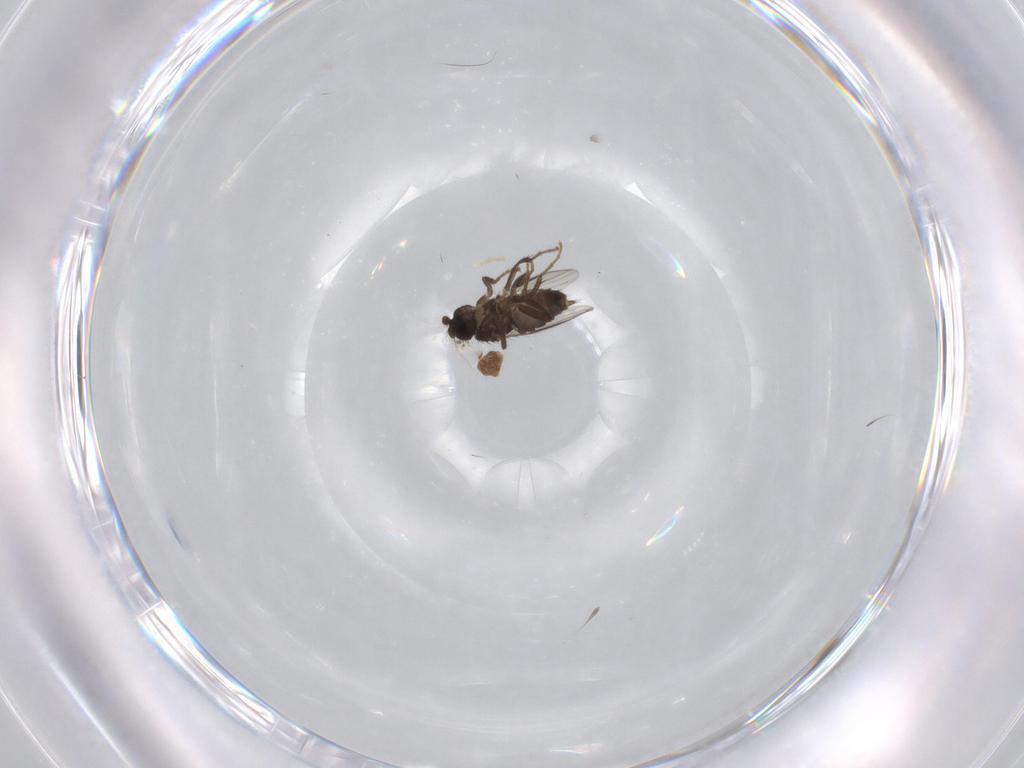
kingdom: Animalia
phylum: Arthropoda
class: Insecta
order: Diptera
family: Sphaeroceridae
